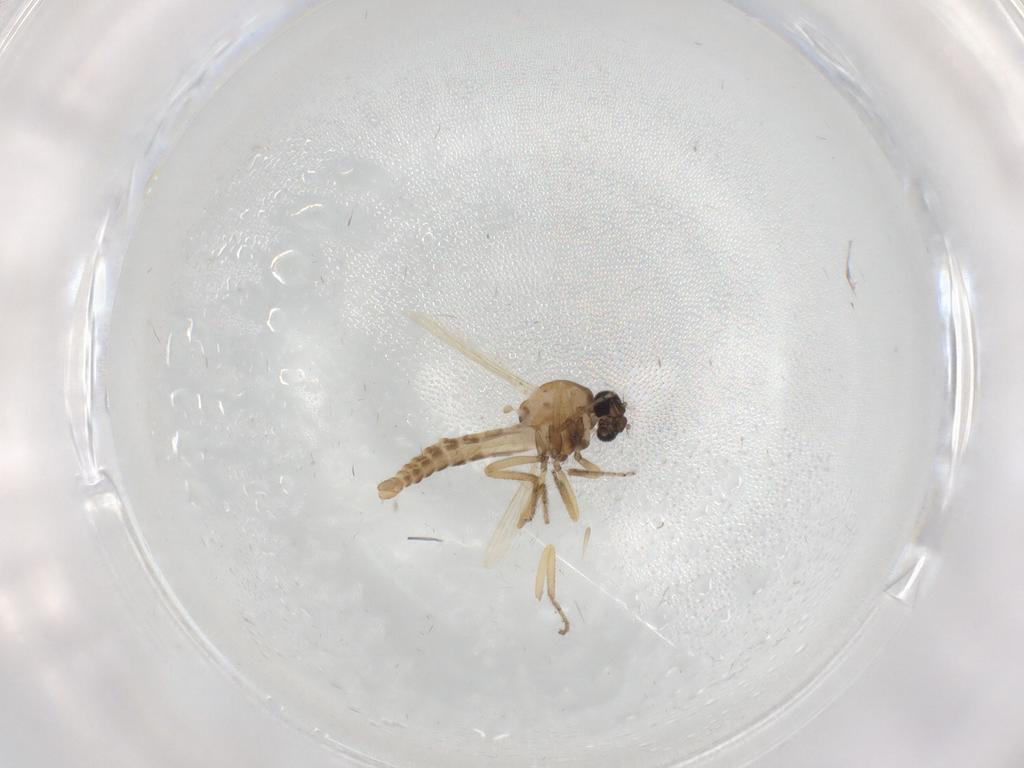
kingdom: Animalia
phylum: Arthropoda
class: Insecta
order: Diptera
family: Ceratopogonidae
